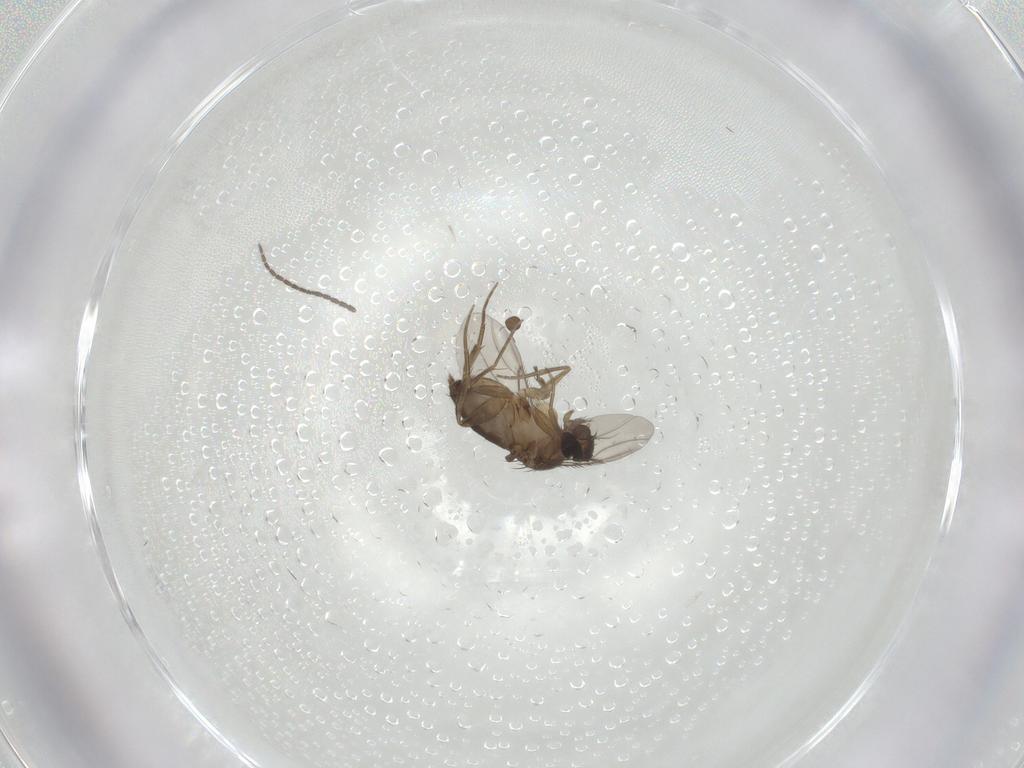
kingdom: Animalia
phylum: Arthropoda
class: Insecta
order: Diptera
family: Phoridae
